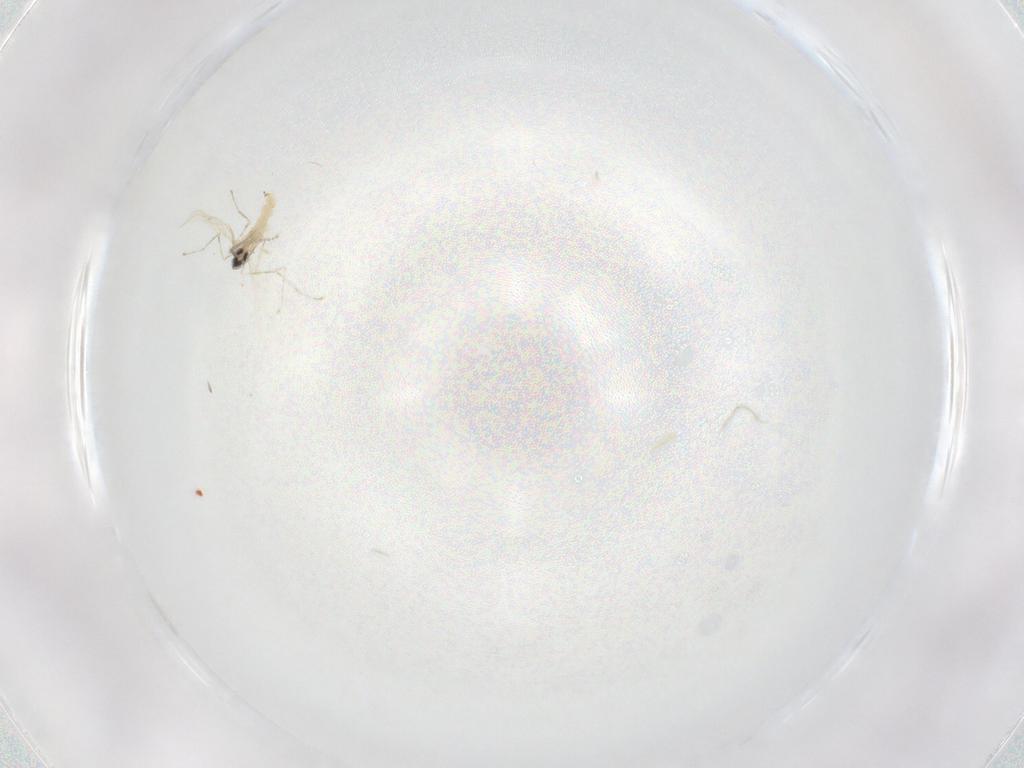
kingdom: Animalia
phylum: Arthropoda
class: Insecta
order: Diptera
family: Cecidomyiidae
